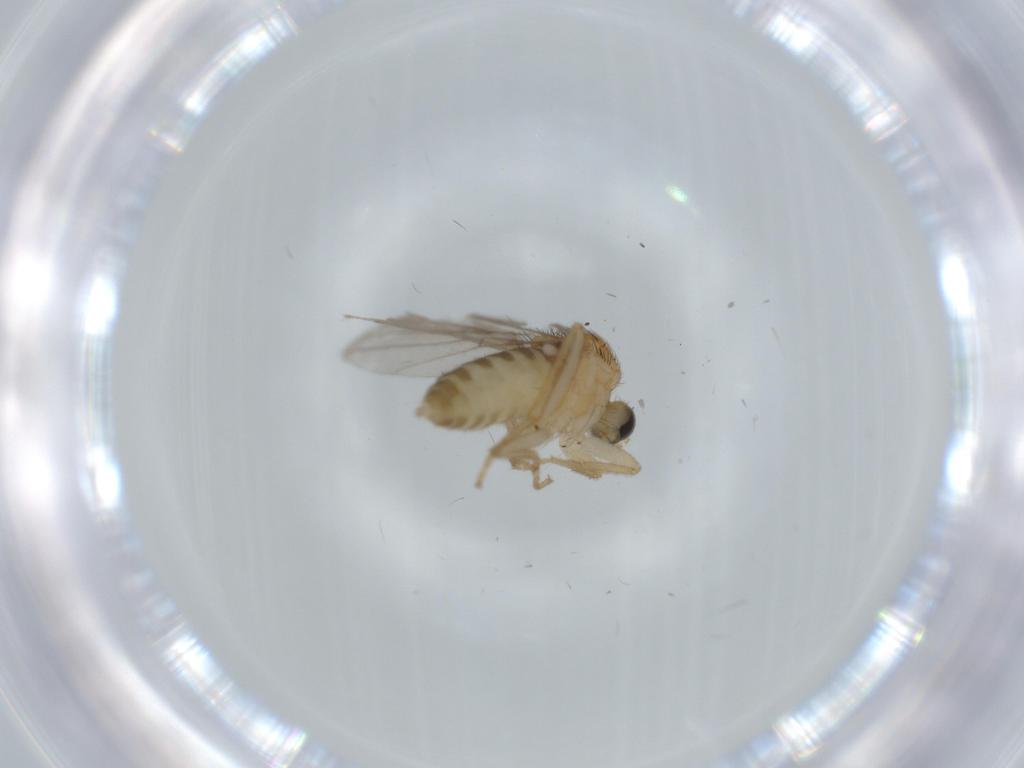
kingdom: Animalia
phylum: Arthropoda
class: Insecta
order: Diptera
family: Hybotidae
